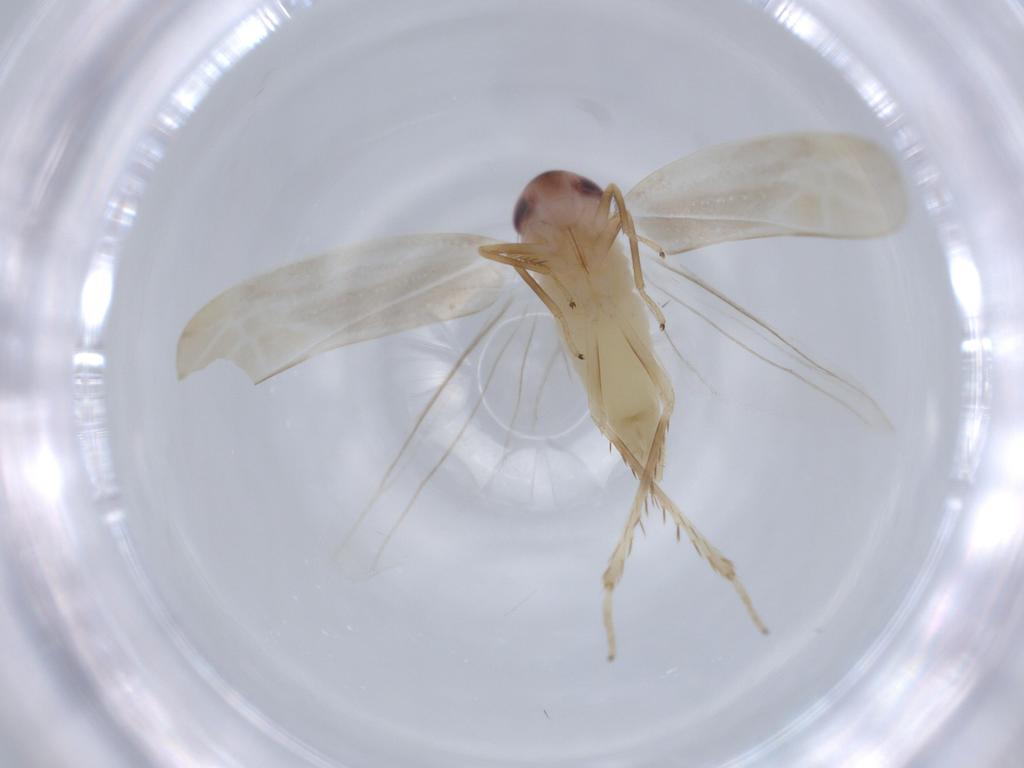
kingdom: Animalia
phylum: Arthropoda
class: Insecta
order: Hemiptera
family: Cicadellidae
